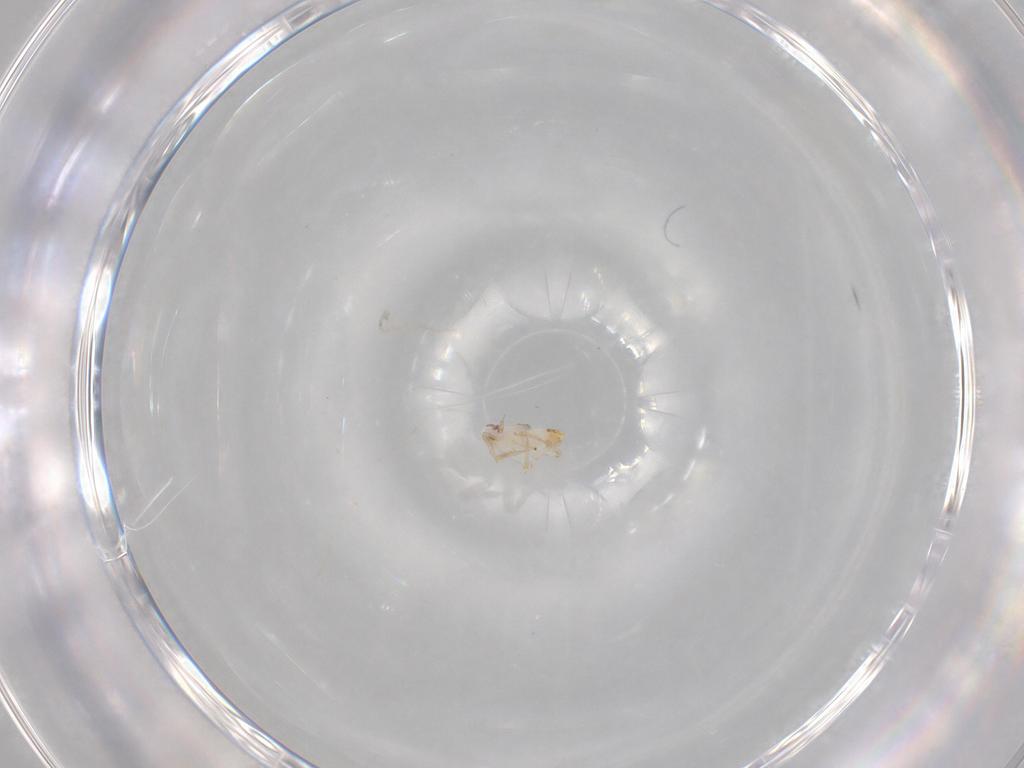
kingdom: Animalia
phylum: Arthropoda
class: Insecta
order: Hemiptera
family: Delphacidae
